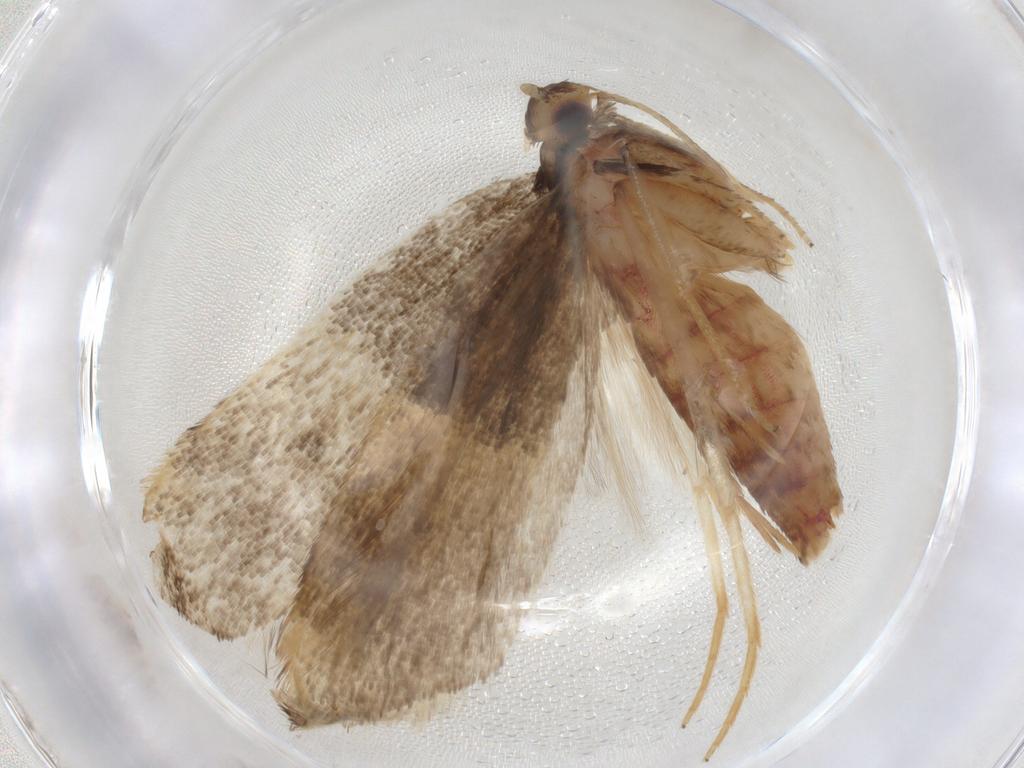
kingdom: Animalia
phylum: Arthropoda
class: Insecta
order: Lepidoptera
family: Lecithoceridae
